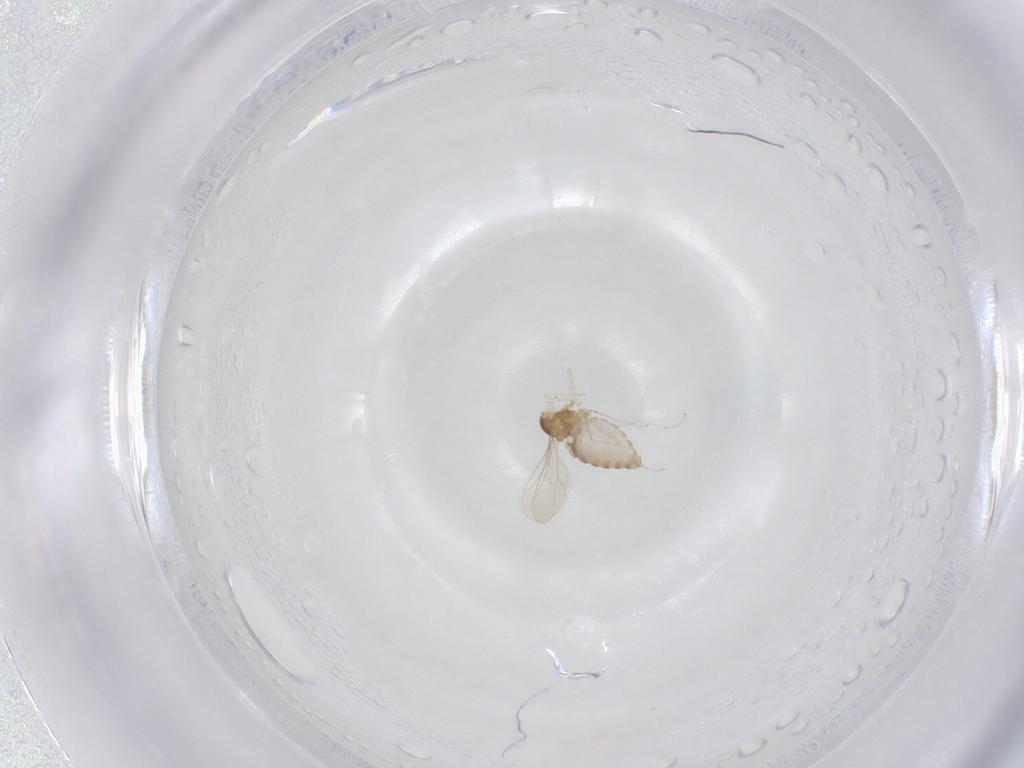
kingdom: Animalia
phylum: Arthropoda
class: Insecta
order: Diptera
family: Cecidomyiidae
